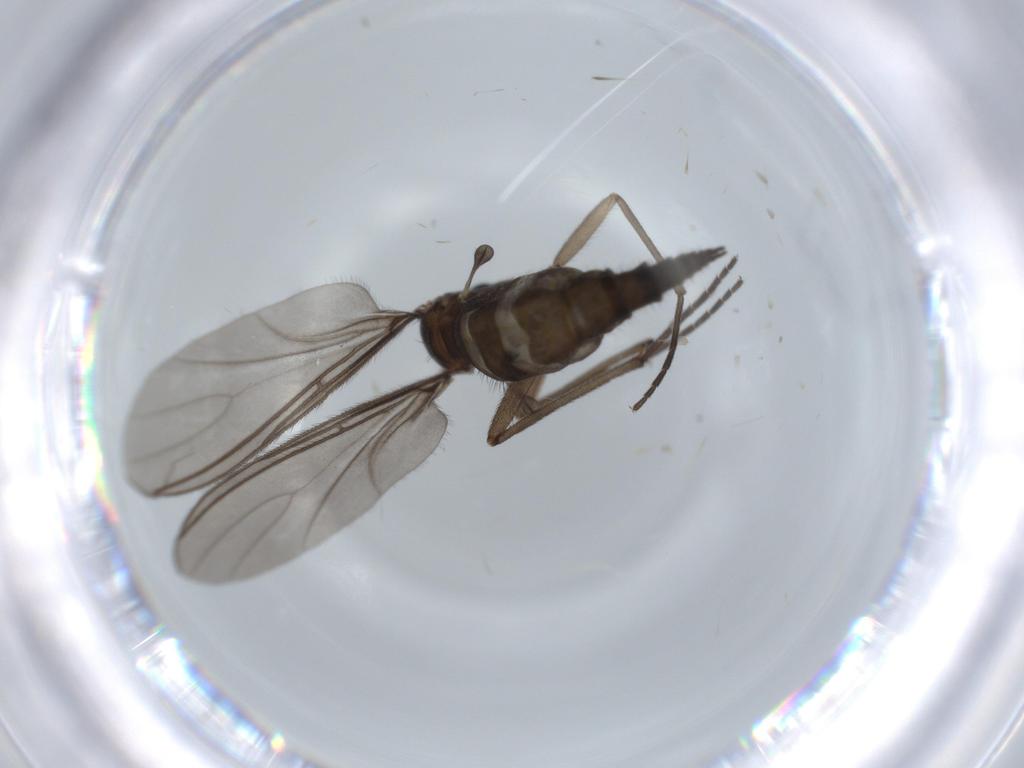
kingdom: Animalia
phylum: Arthropoda
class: Insecta
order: Diptera
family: Sciaridae
